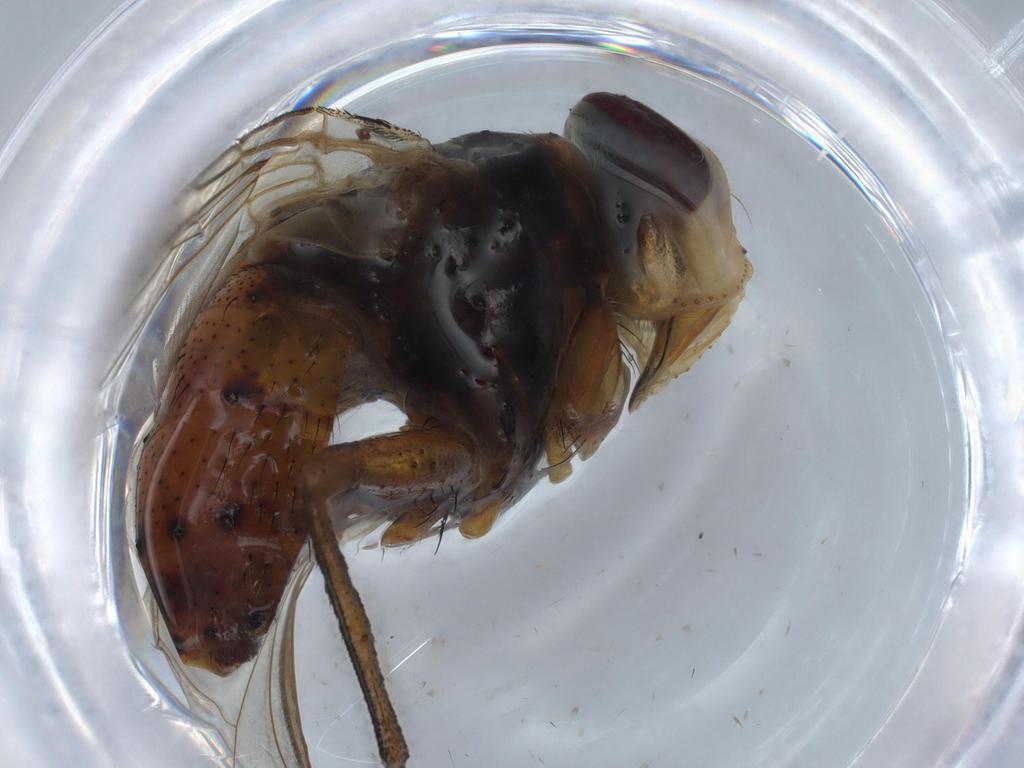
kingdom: Animalia
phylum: Arthropoda
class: Insecta
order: Diptera
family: Tachinidae
